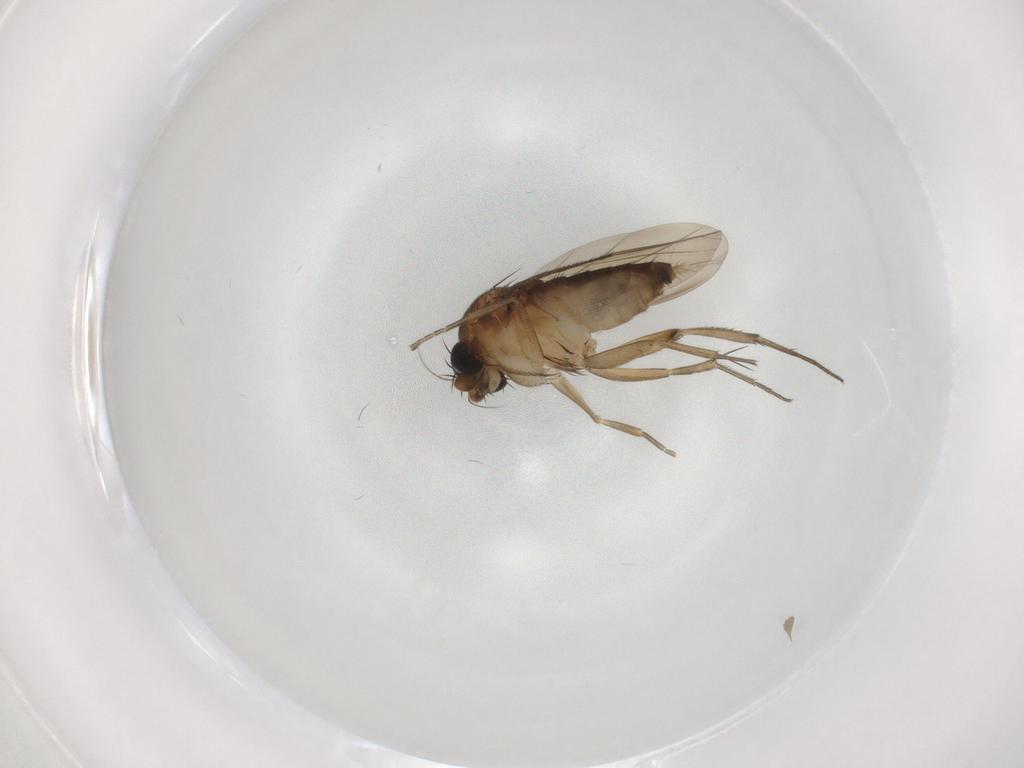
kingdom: Animalia
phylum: Arthropoda
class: Insecta
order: Diptera
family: Phoridae
